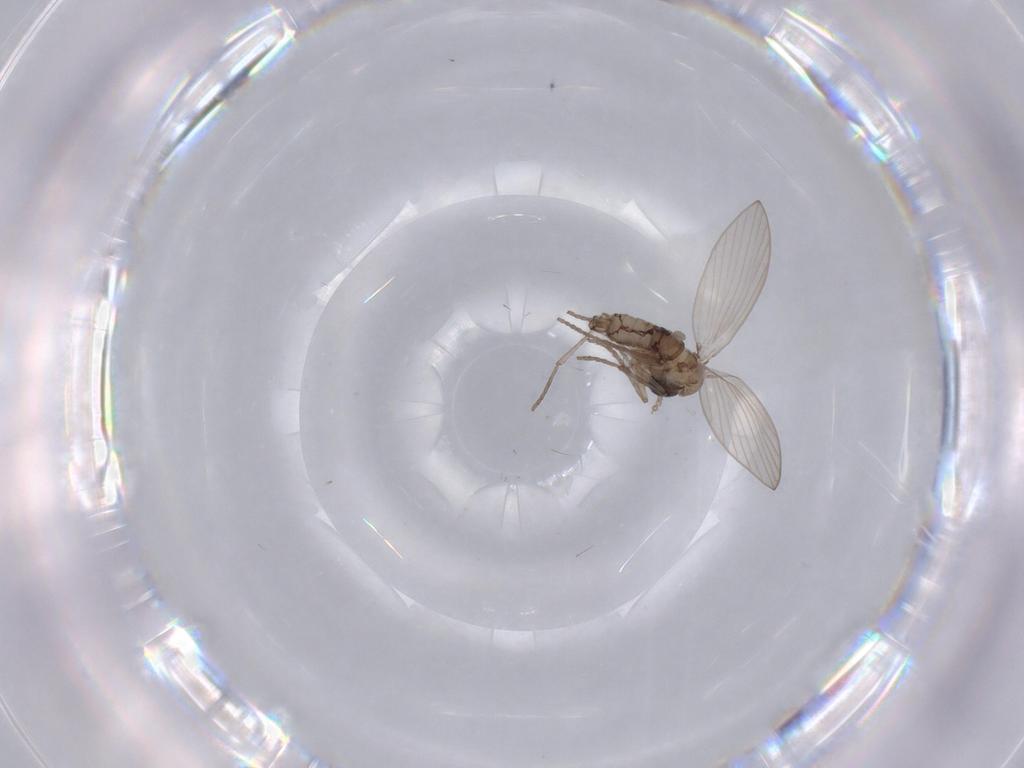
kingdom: Animalia
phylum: Arthropoda
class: Insecta
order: Diptera
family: Psychodidae
